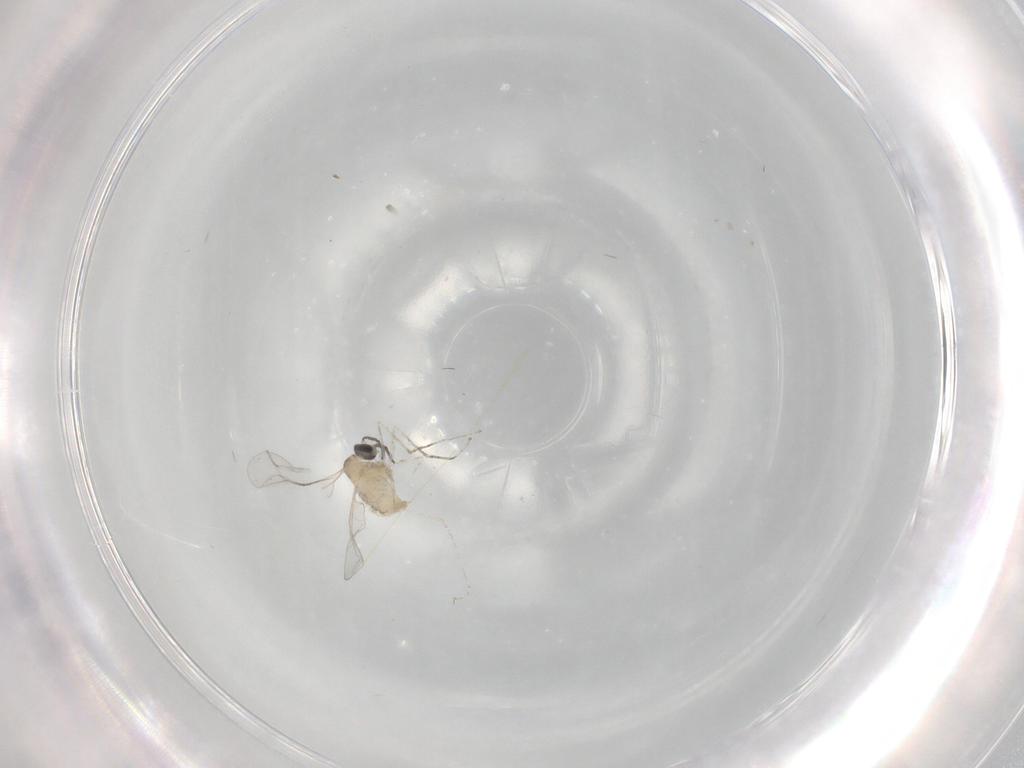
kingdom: Animalia
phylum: Arthropoda
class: Insecta
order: Diptera
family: Cecidomyiidae
